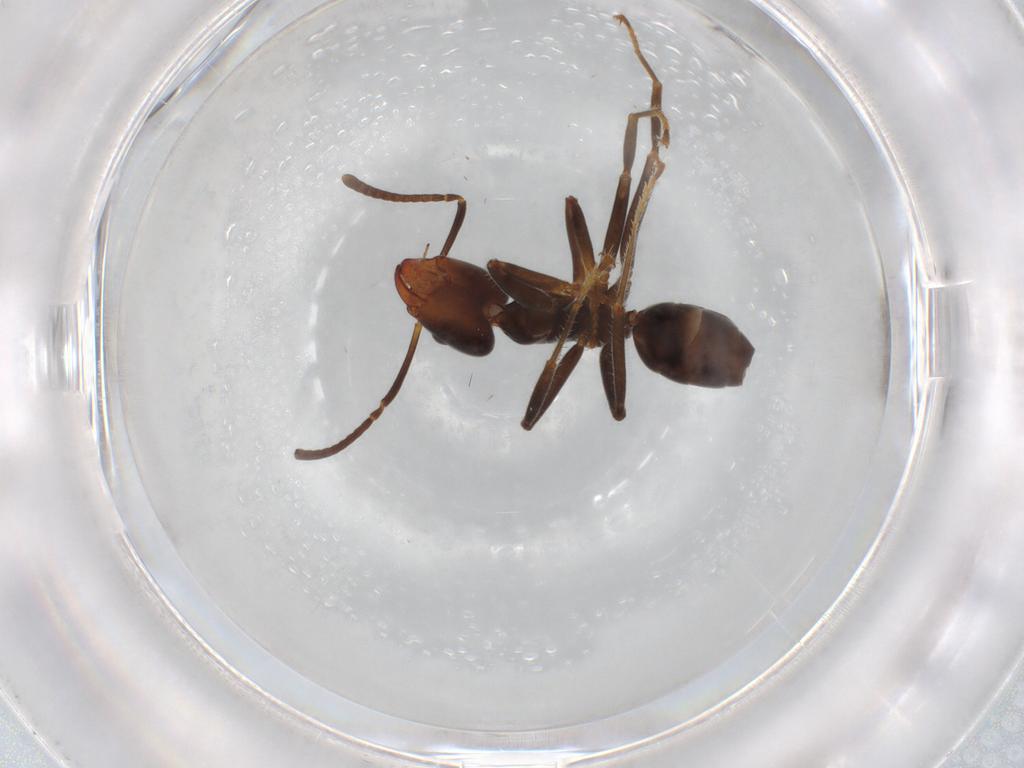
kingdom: Animalia
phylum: Arthropoda
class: Insecta
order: Hymenoptera
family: Formicidae
